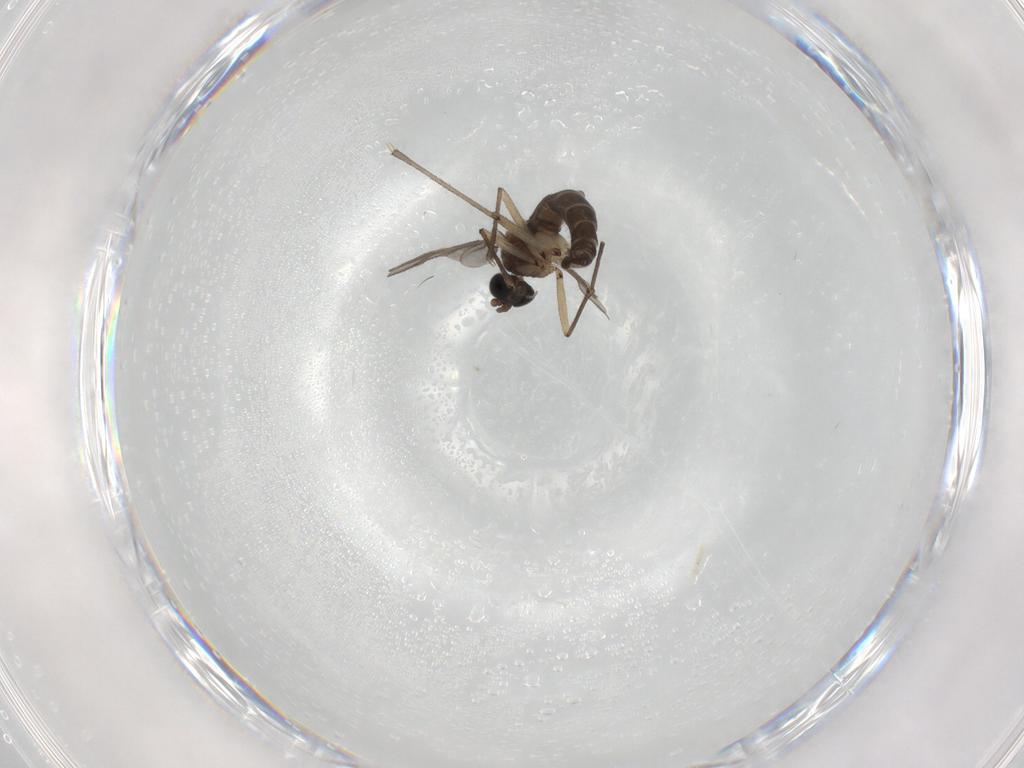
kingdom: Animalia
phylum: Arthropoda
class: Insecta
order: Diptera
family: Sciaridae
